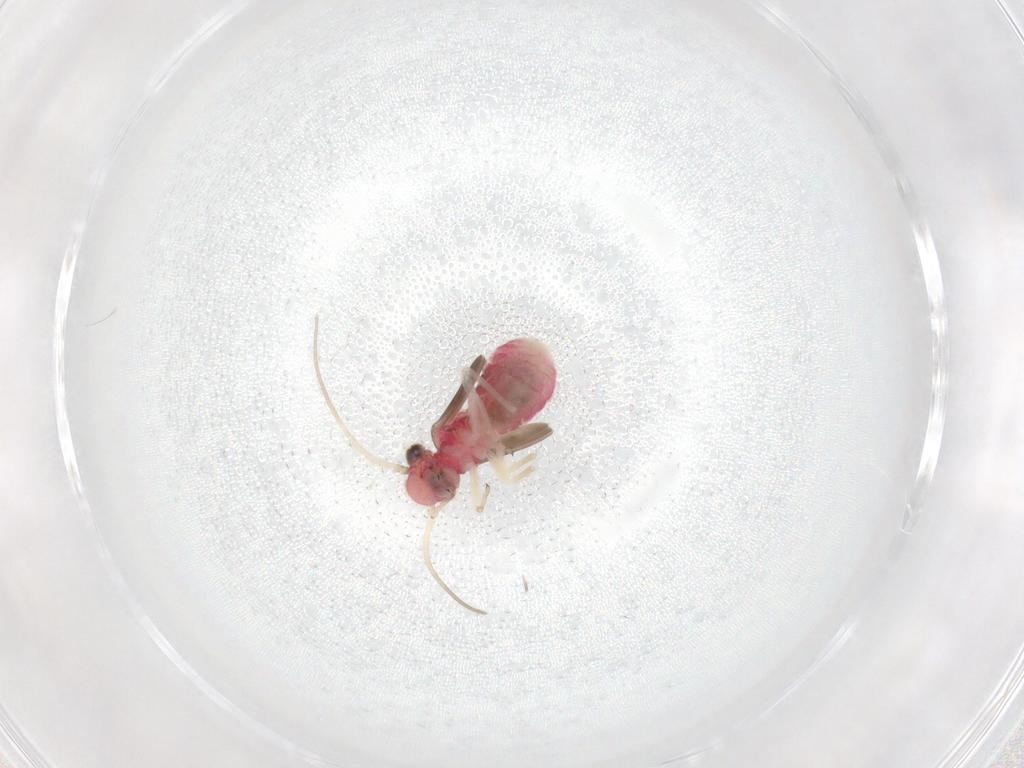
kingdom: Animalia
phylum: Arthropoda
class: Insecta
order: Psocodea
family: Caeciliusidae
